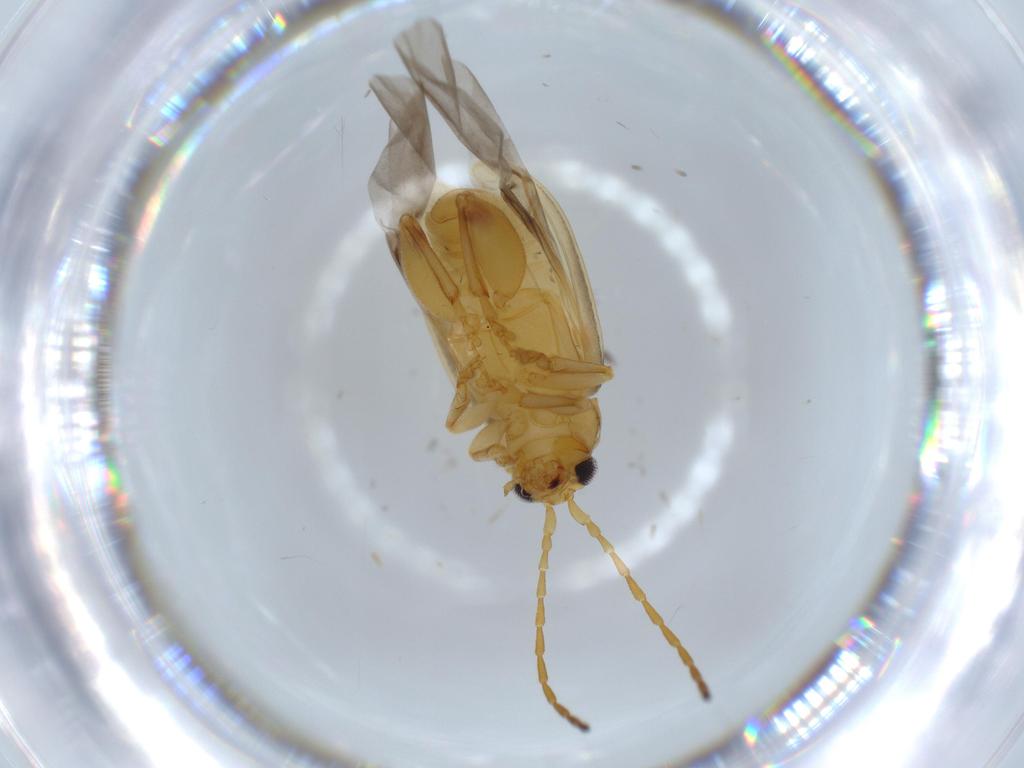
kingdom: Animalia
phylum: Arthropoda
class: Insecta
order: Coleoptera
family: Chrysomelidae
